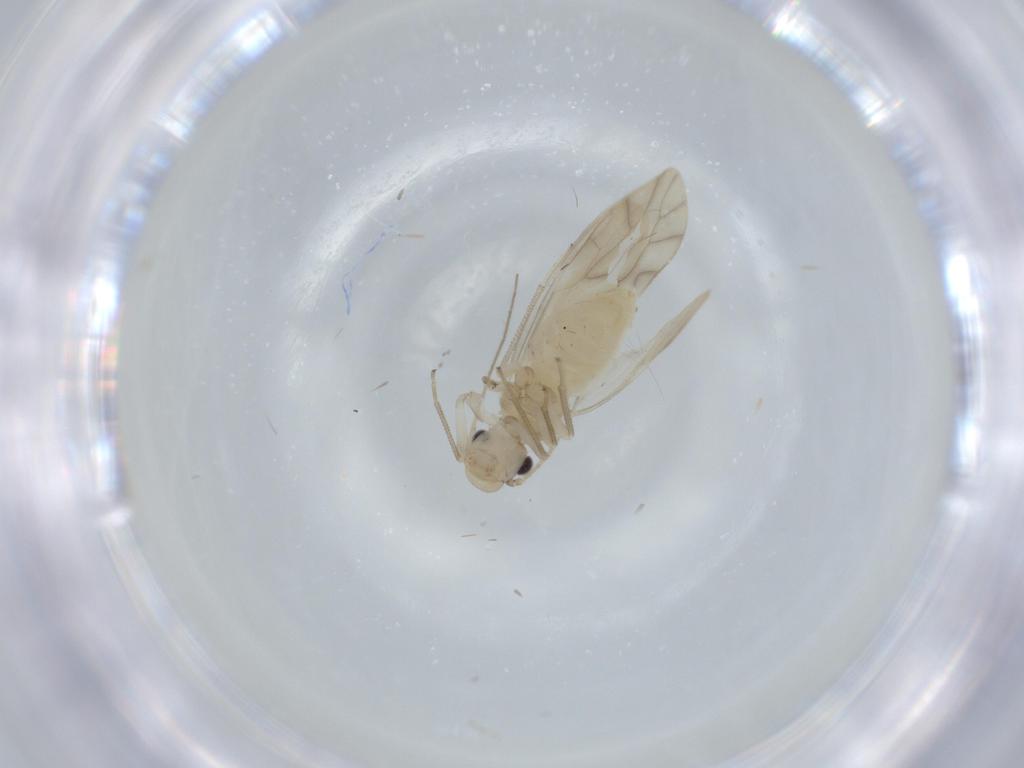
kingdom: Animalia
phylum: Arthropoda
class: Insecta
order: Psocodea
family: Caeciliusidae
